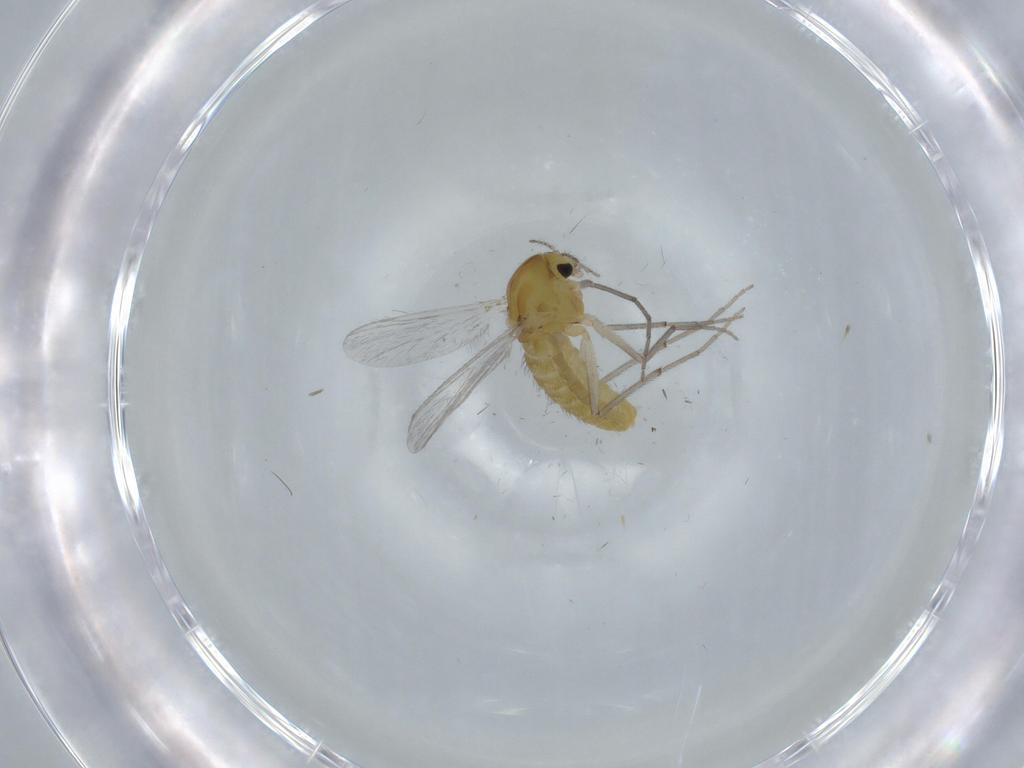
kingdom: Animalia
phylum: Arthropoda
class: Insecta
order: Diptera
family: Chironomidae
